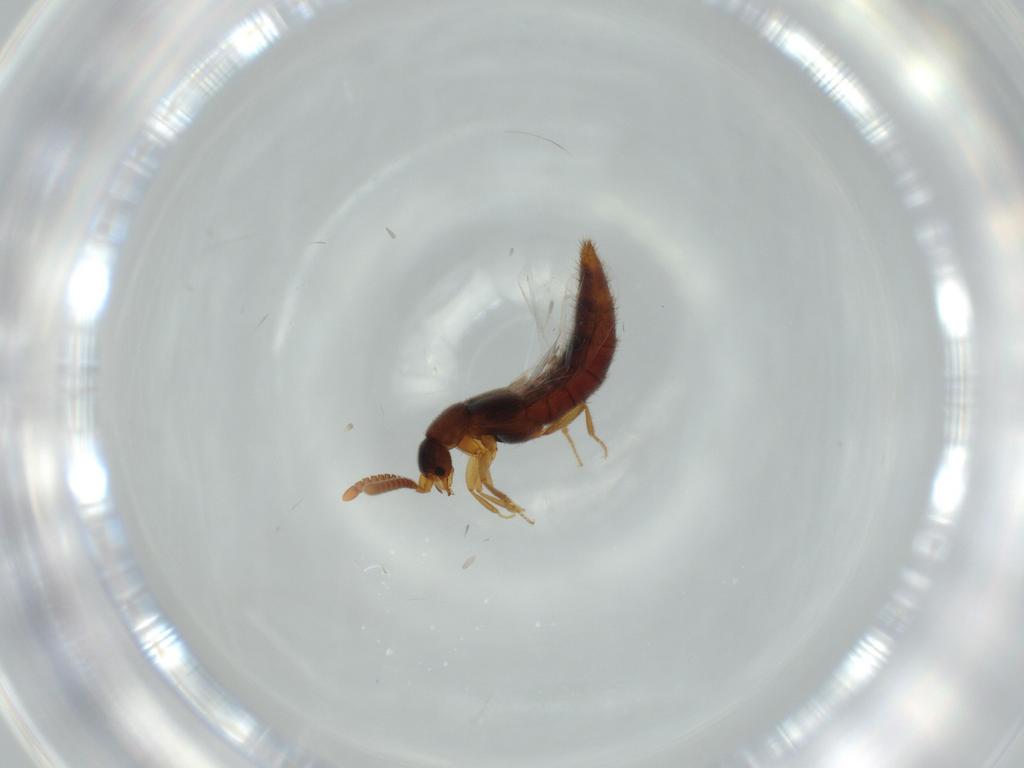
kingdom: Animalia
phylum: Arthropoda
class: Insecta
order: Coleoptera
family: Staphylinidae
